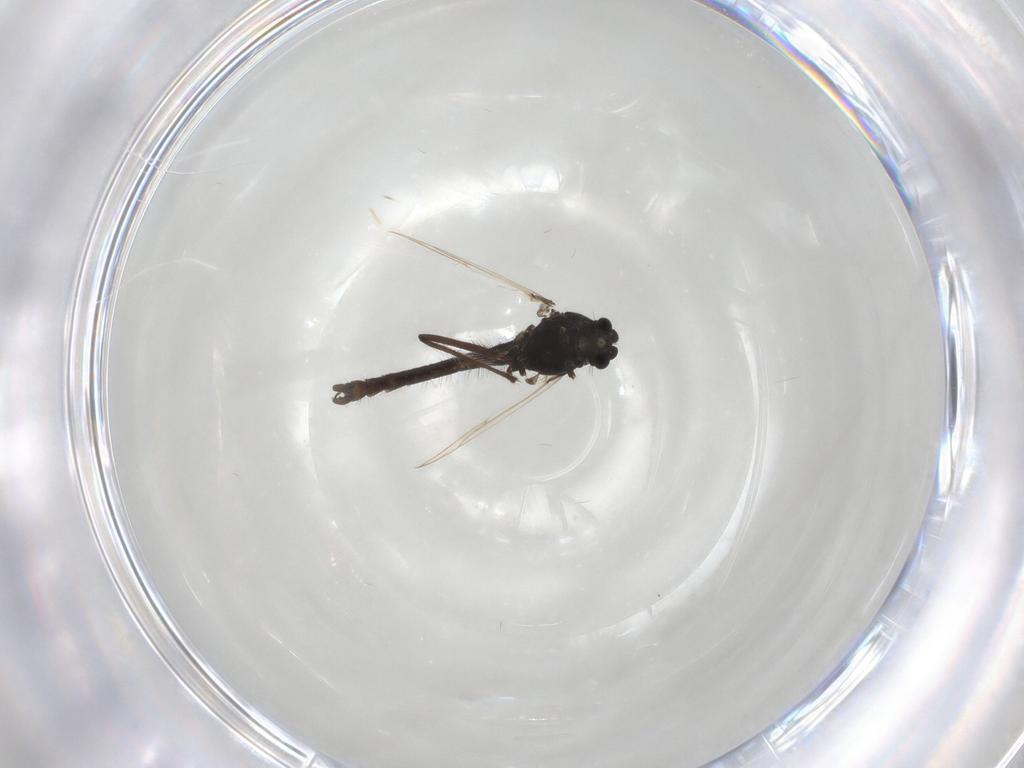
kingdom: Animalia
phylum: Arthropoda
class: Insecta
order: Diptera
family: Chironomidae
